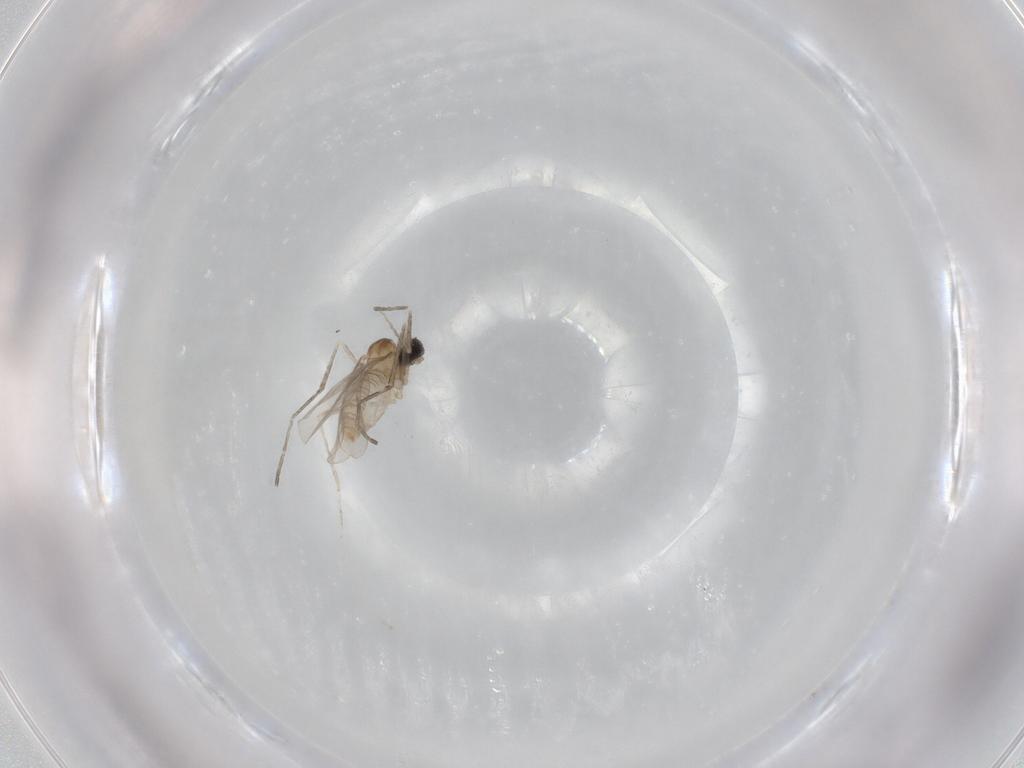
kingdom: Animalia
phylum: Arthropoda
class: Insecta
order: Diptera
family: Cecidomyiidae
